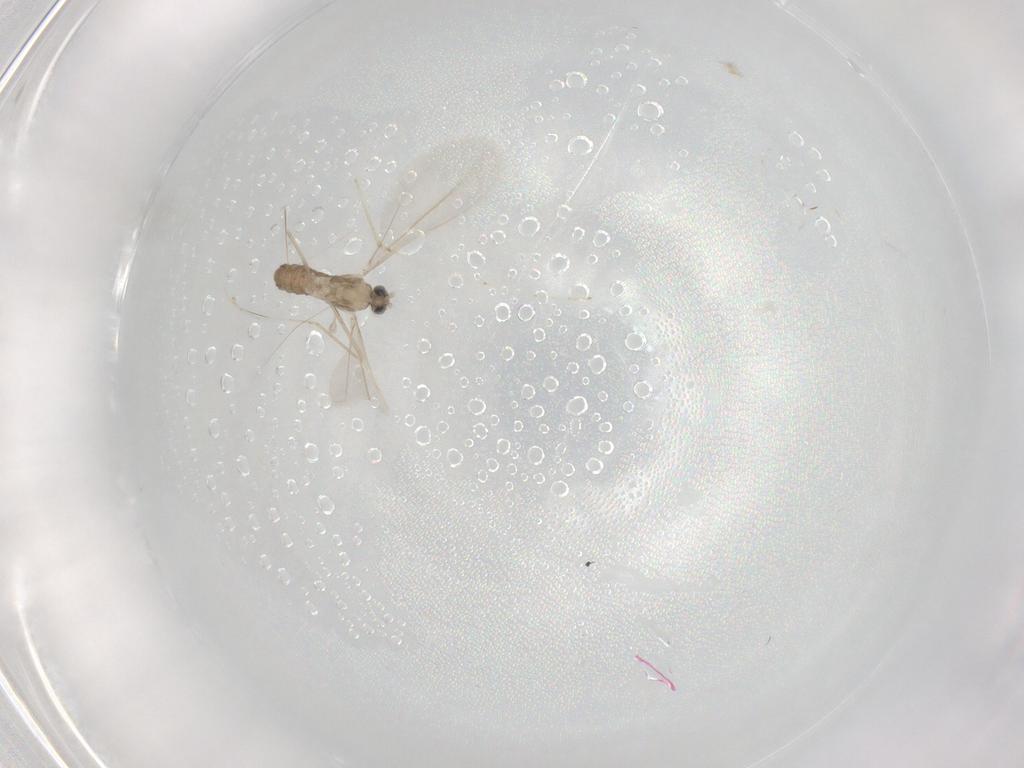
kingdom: Animalia
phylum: Arthropoda
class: Insecta
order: Diptera
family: Cecidomyiidae
